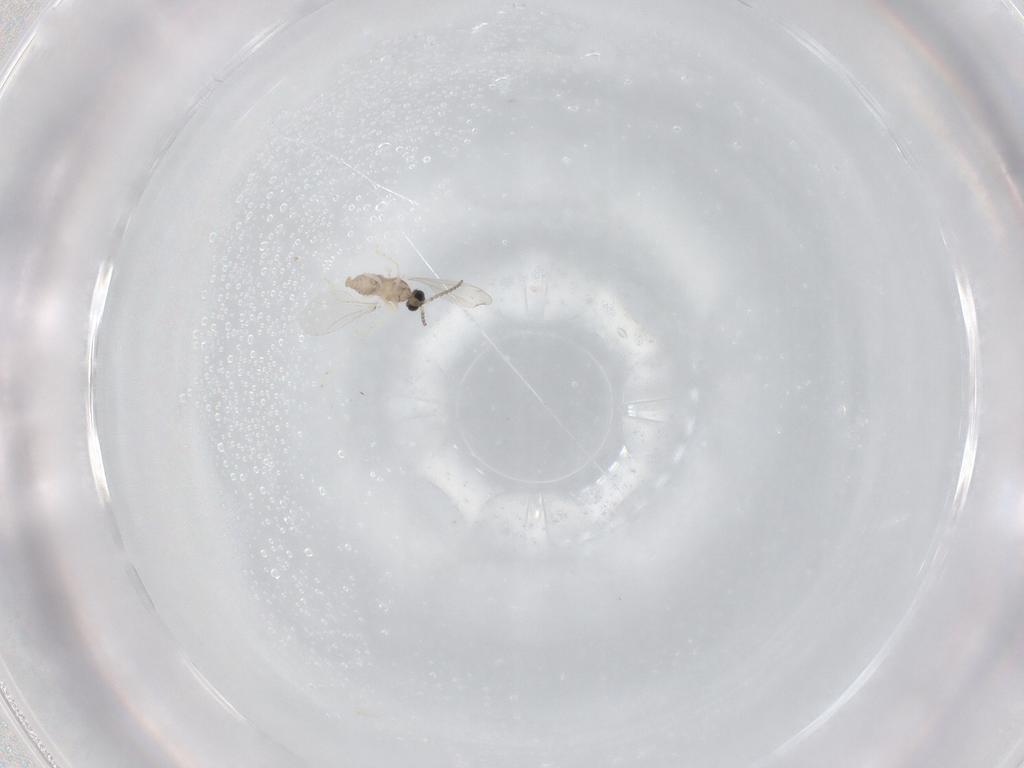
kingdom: Animalia
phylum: Arthropoda
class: Insecta
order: Diptera
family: Cecidomyiidae
